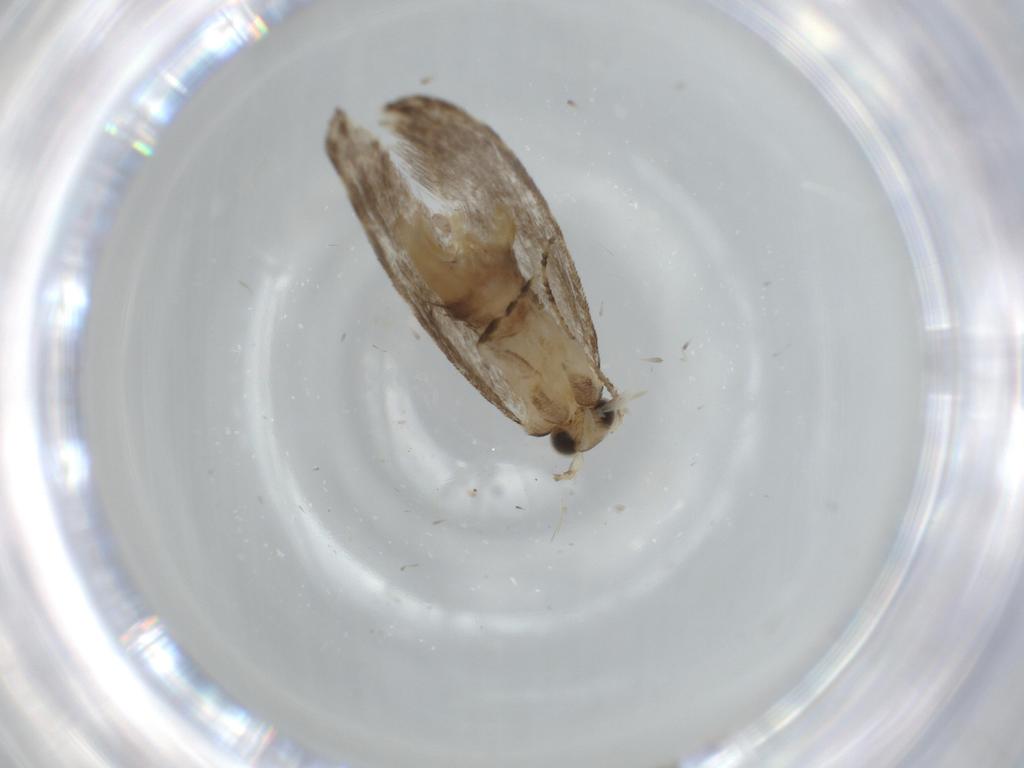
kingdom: Animalia
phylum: Arthropoda
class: Insecta
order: Lepidoptera
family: Tineidae
